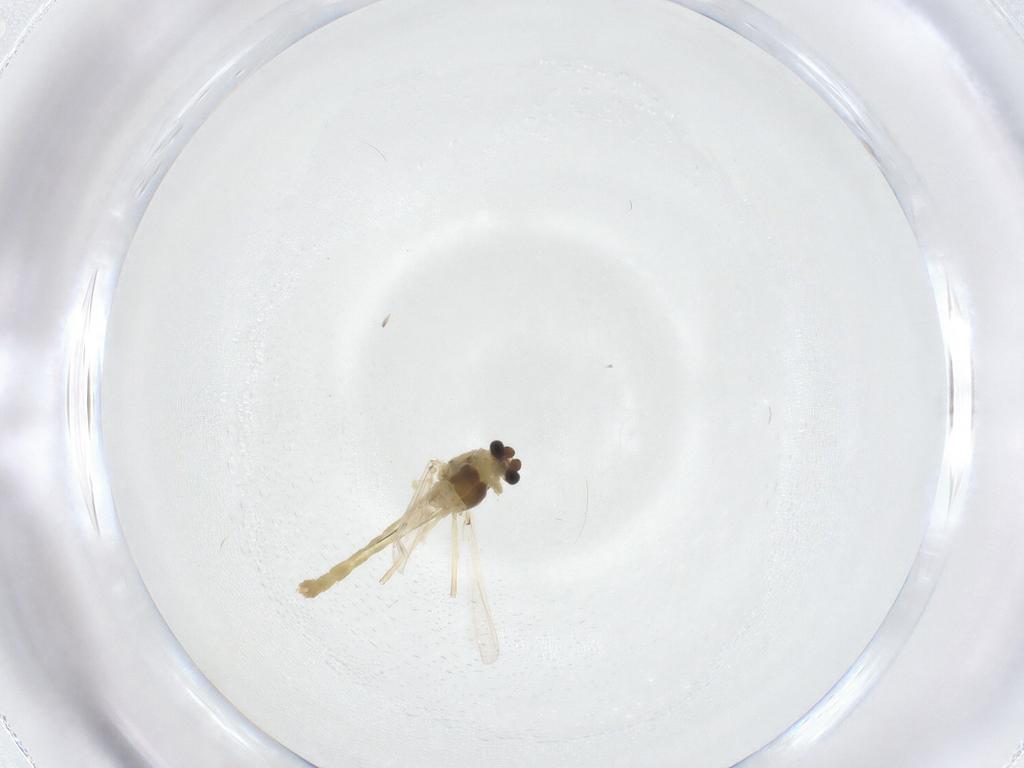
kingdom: Animalia
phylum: Arthropoda
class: Insecta
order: Diptera
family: Chironomidae
